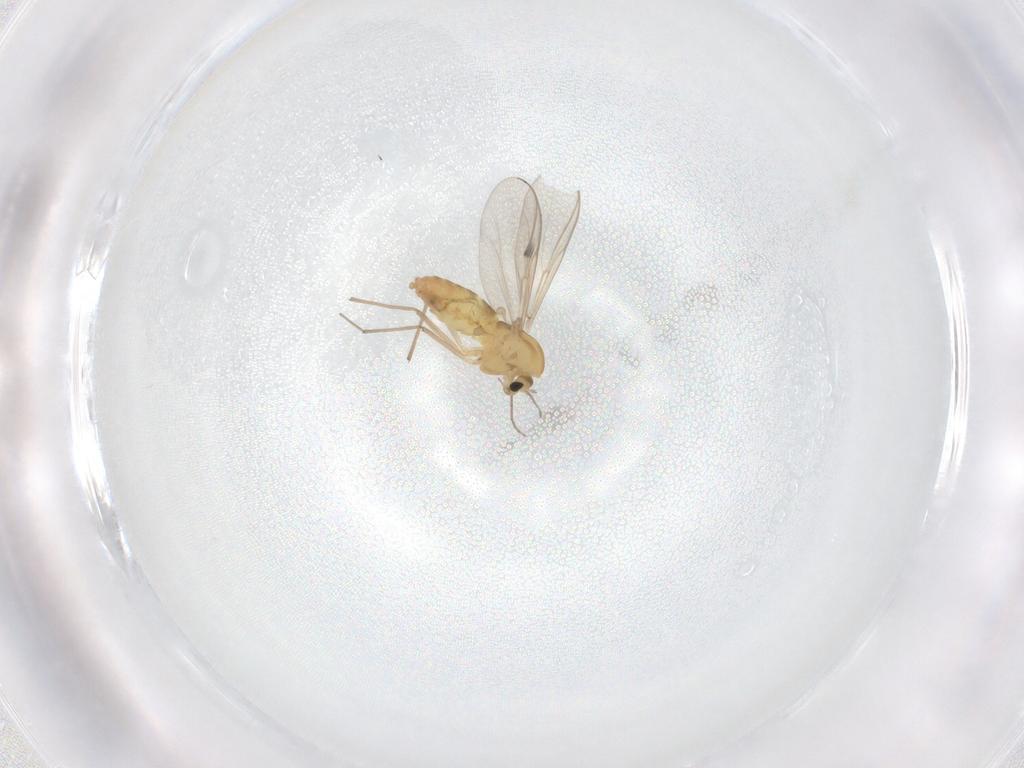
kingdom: Animalia
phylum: Arthropoda
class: Insecta
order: Diptera
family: Chironomidae
